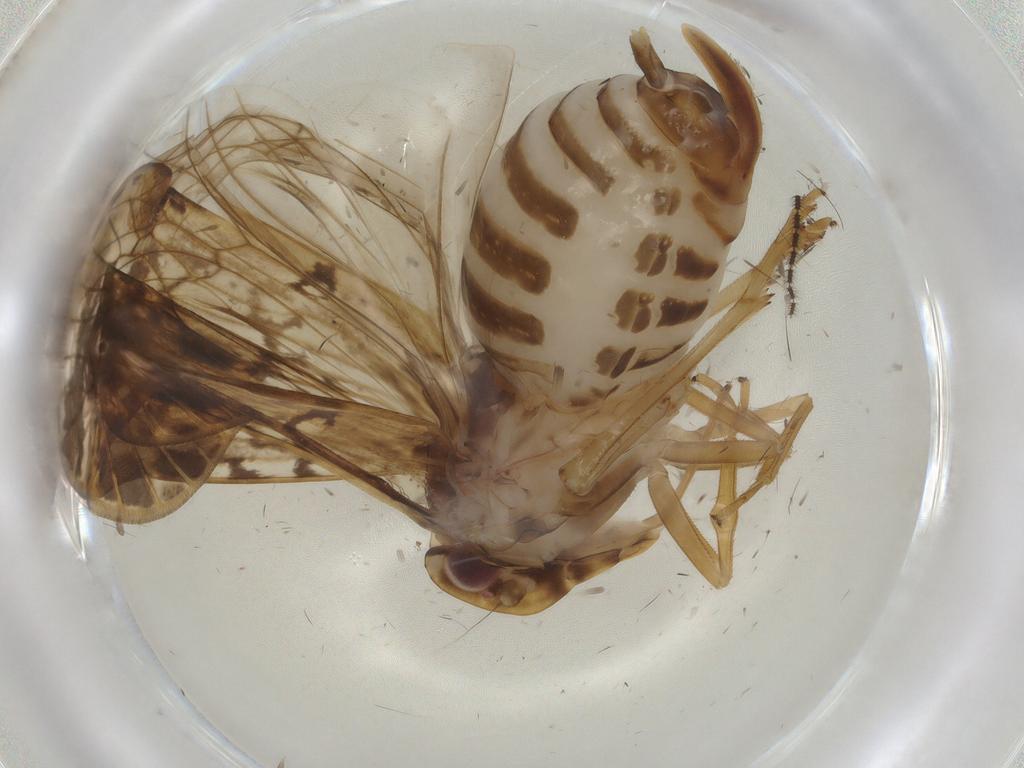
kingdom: Animalia
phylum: Arthropoda
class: Insecta
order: Hemiptera
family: Cixiidae
